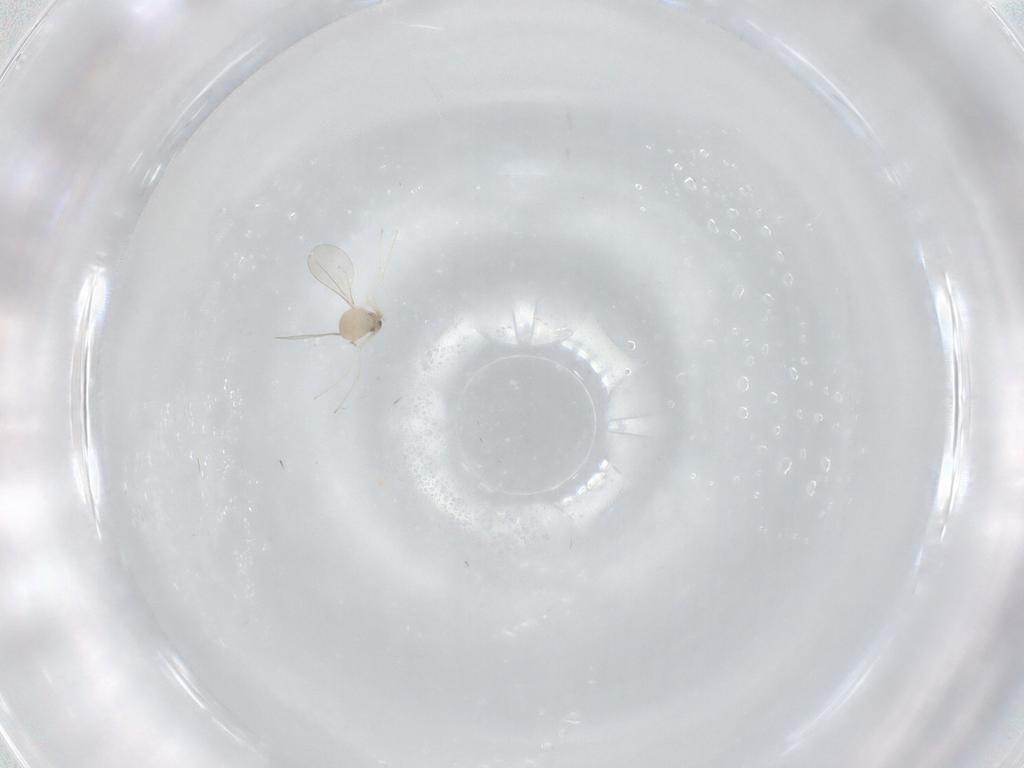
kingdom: Animalia
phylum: Arthropoda
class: Insecta
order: Diptera
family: Cecidomyiidae
